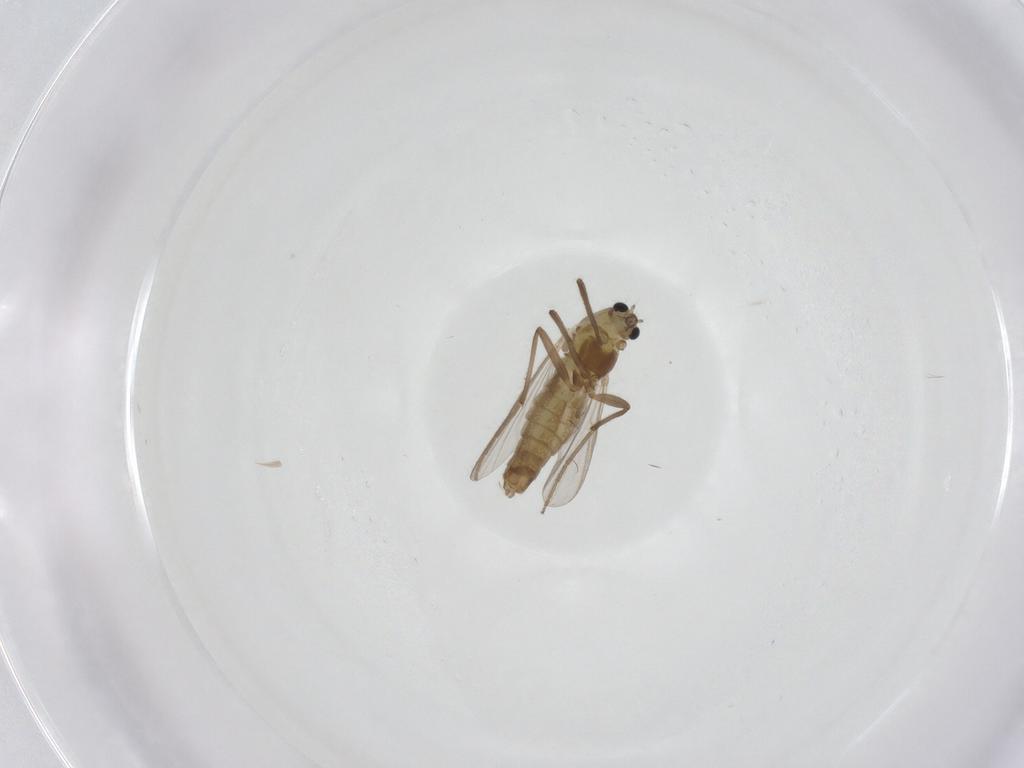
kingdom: Animalia
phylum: Arthropoda
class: Insecta
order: Diptera
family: Chironomidae
